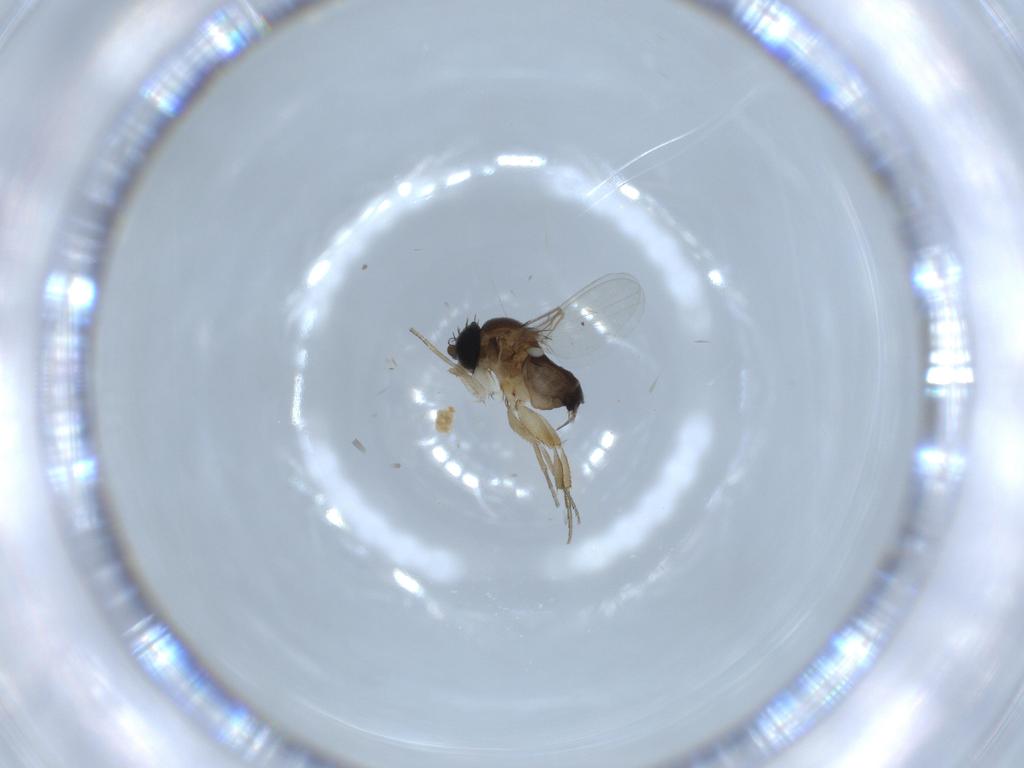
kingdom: Animalia
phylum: Arthropoda
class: Insecta
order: Diptera
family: Phoridae
